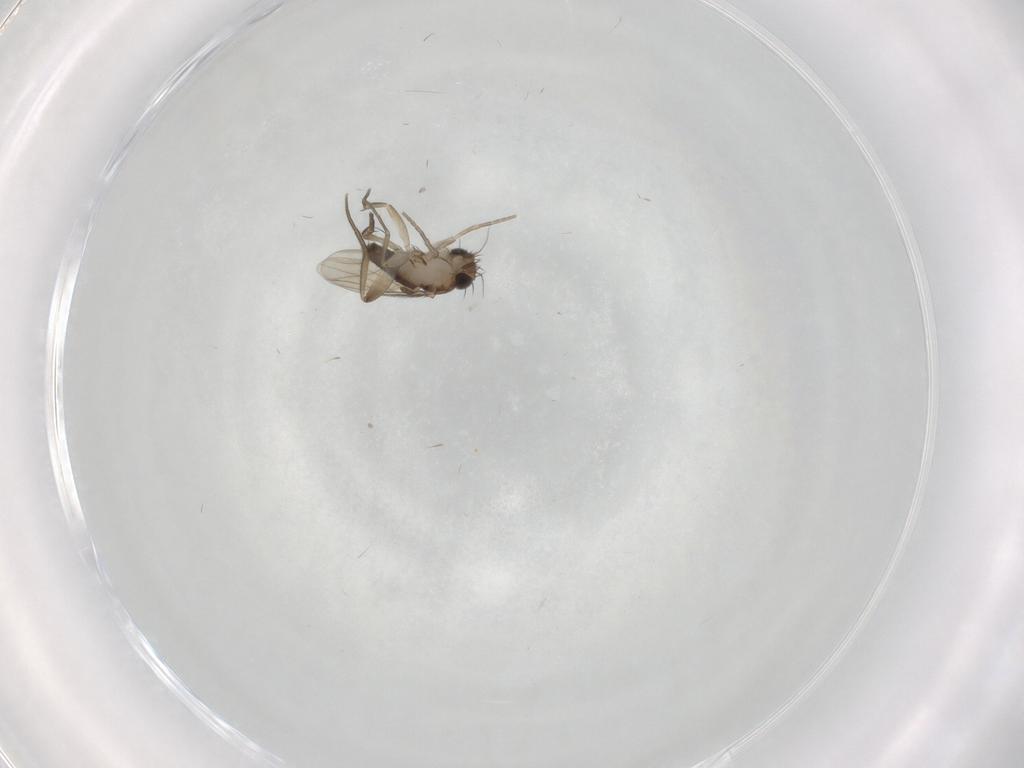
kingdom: Animalia
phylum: Arthropoda
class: Insecta
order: Diptera
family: Phoridae
